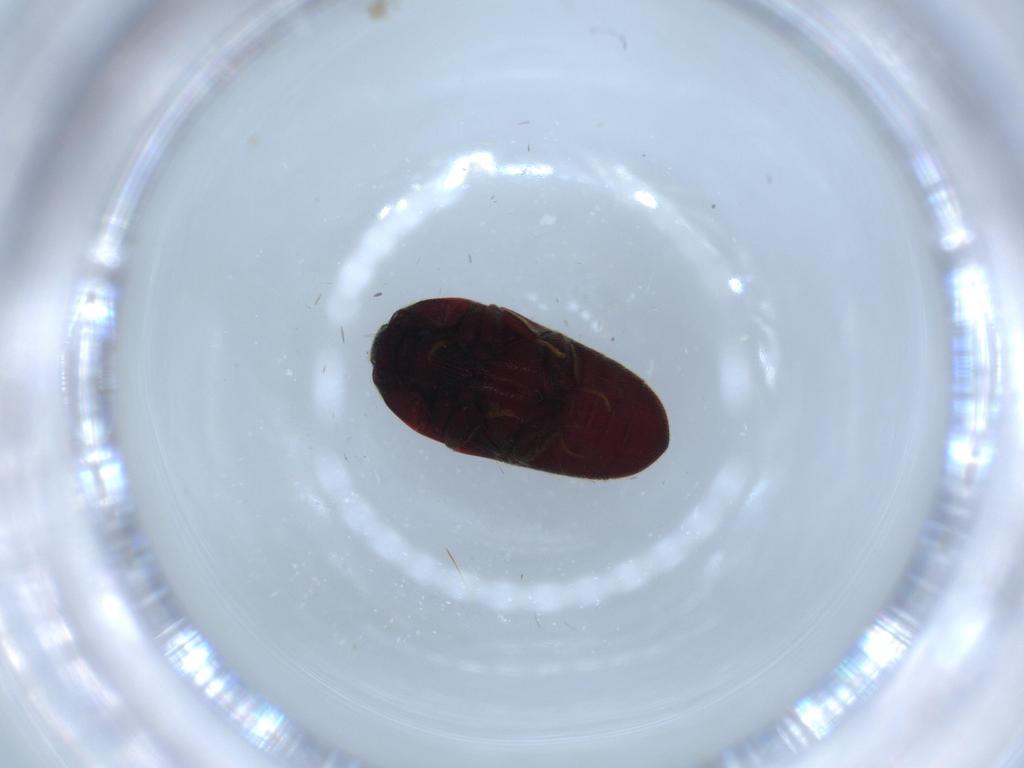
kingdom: Animalia
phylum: Arthropoda
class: Insecta
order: Coleoptera
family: Throscidae
